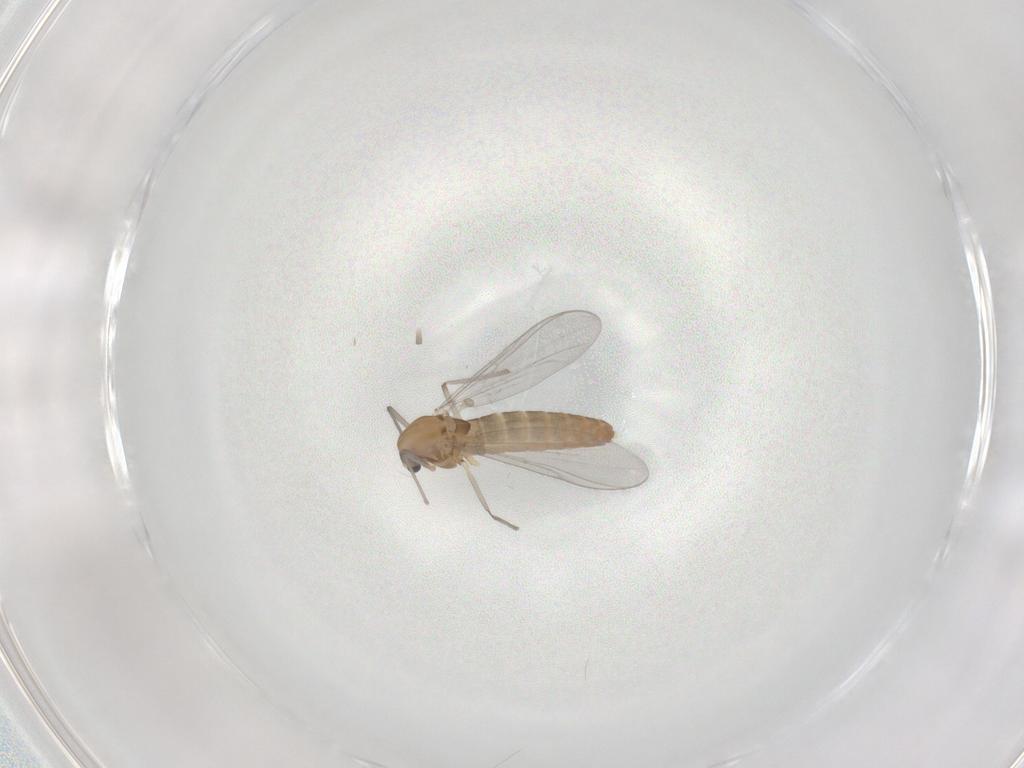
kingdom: Animalia
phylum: Arthropoda
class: Insecta
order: Diptera
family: Chironomidae
